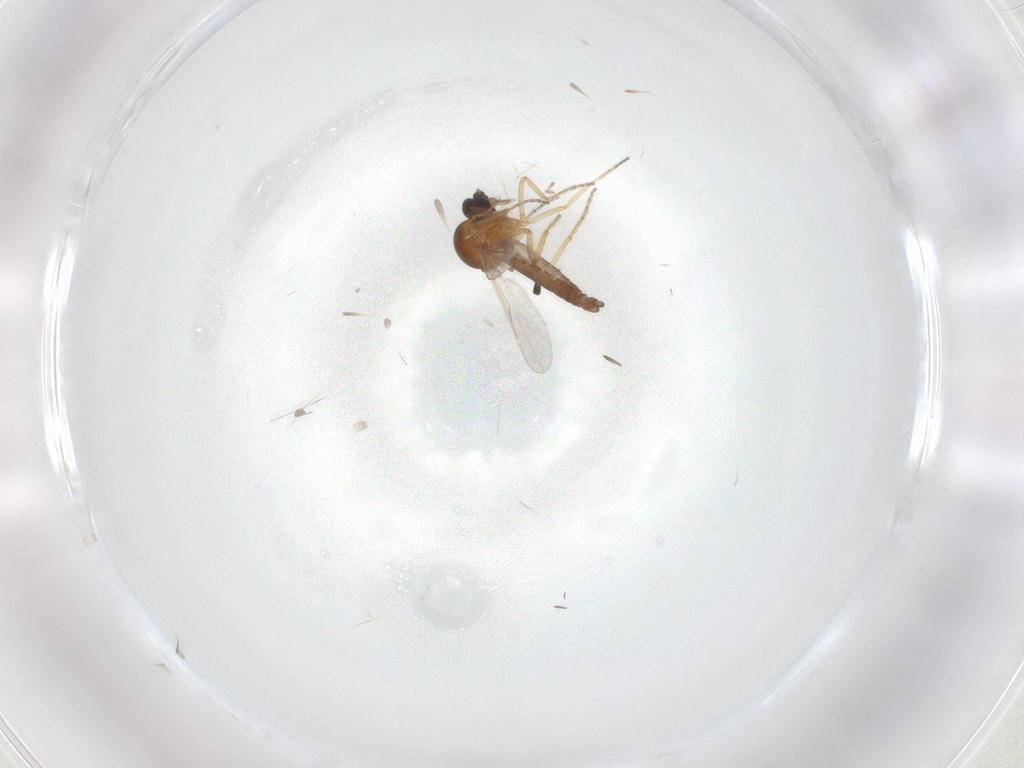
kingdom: Animalia
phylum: Arthropoda
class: Insecta
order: Diptera
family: Ceratopogonidae
